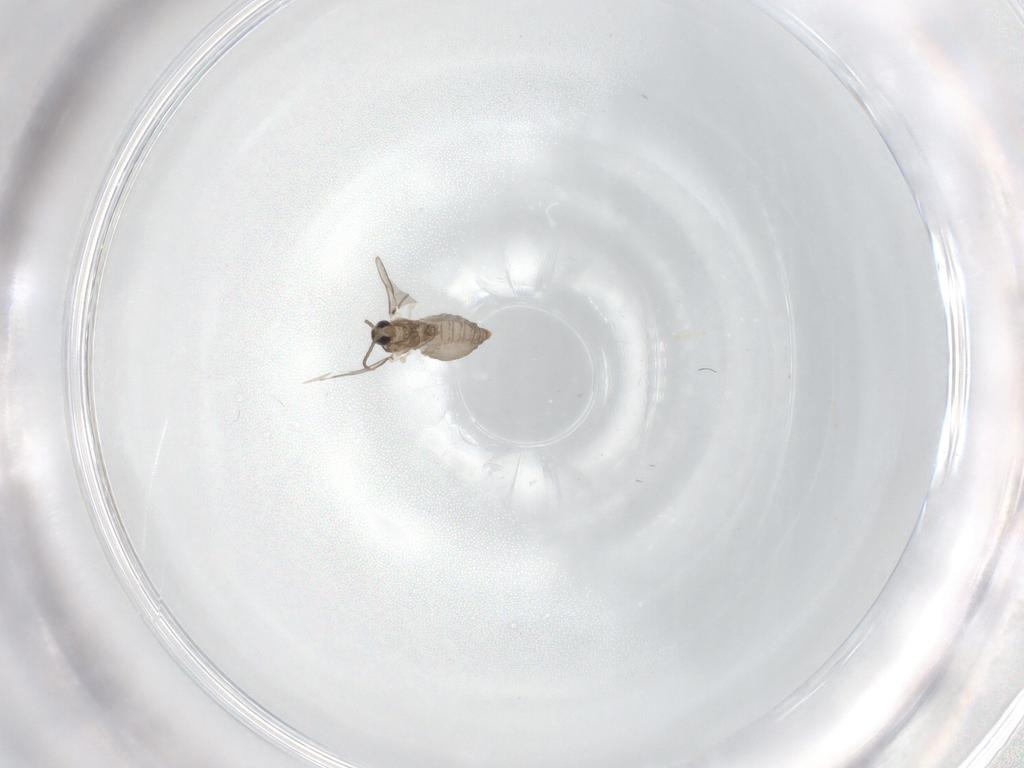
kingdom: Animalia
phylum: Arthropoda
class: Insecta
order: Diptera
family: Cecidomyiidae
